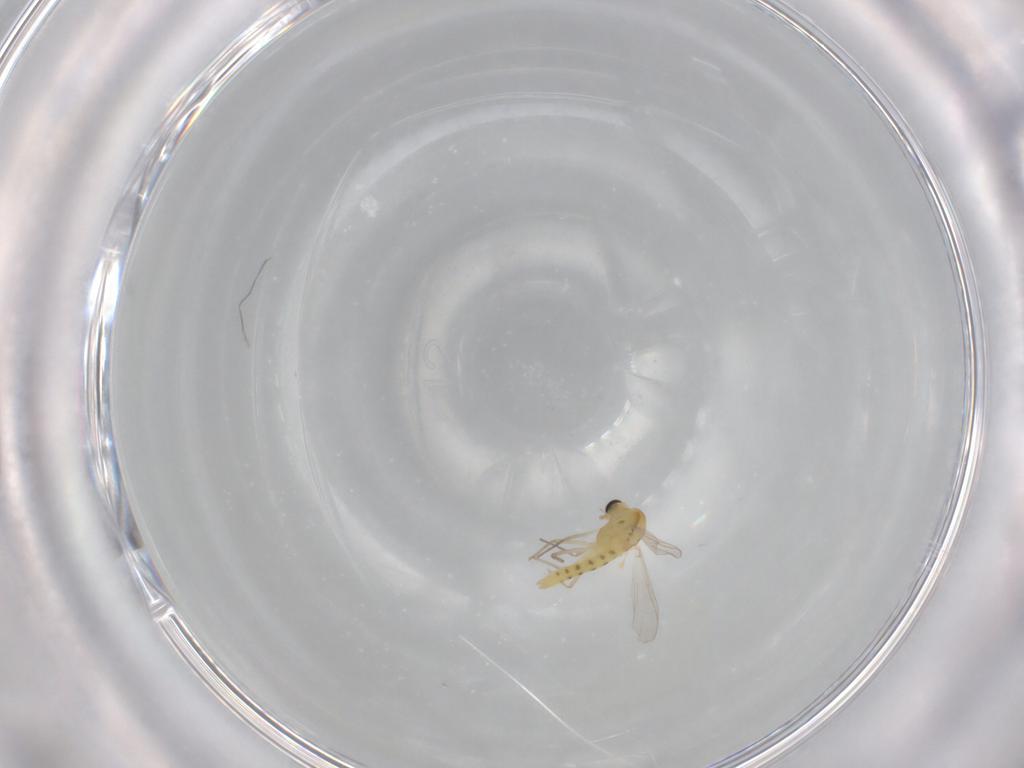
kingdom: Animalia
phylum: Arthropoda
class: Insecta
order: Diptera
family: Chironomidae
